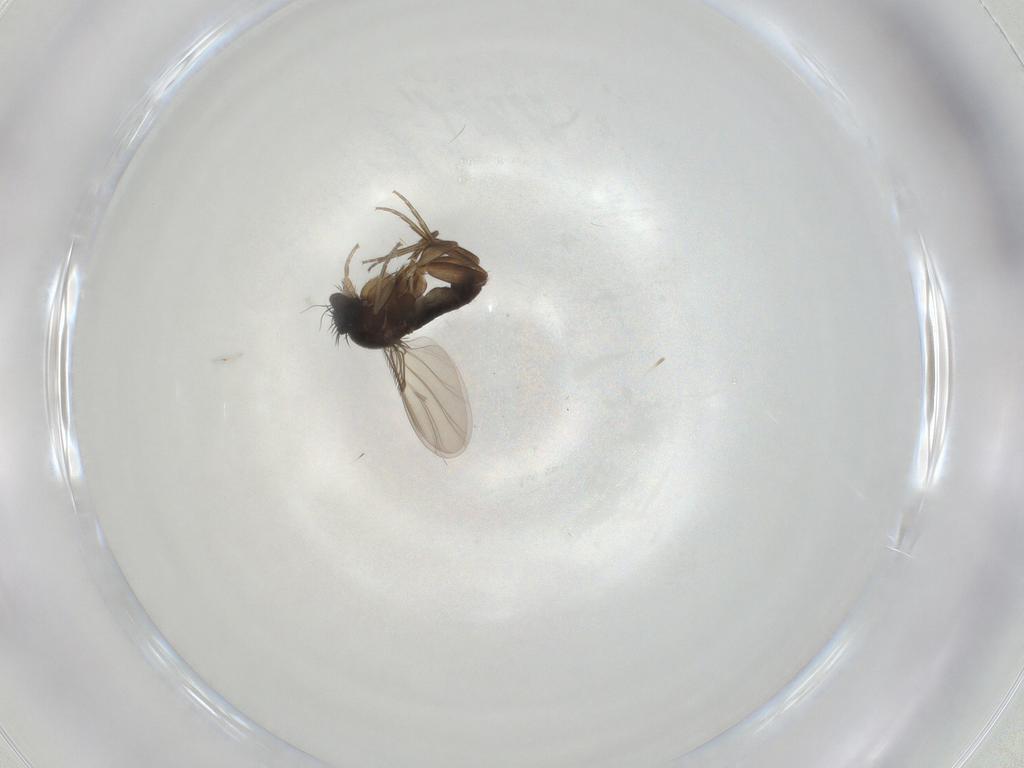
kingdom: Animalia
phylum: Arthropoda
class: Insecta
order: Diptera
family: Phoridae
